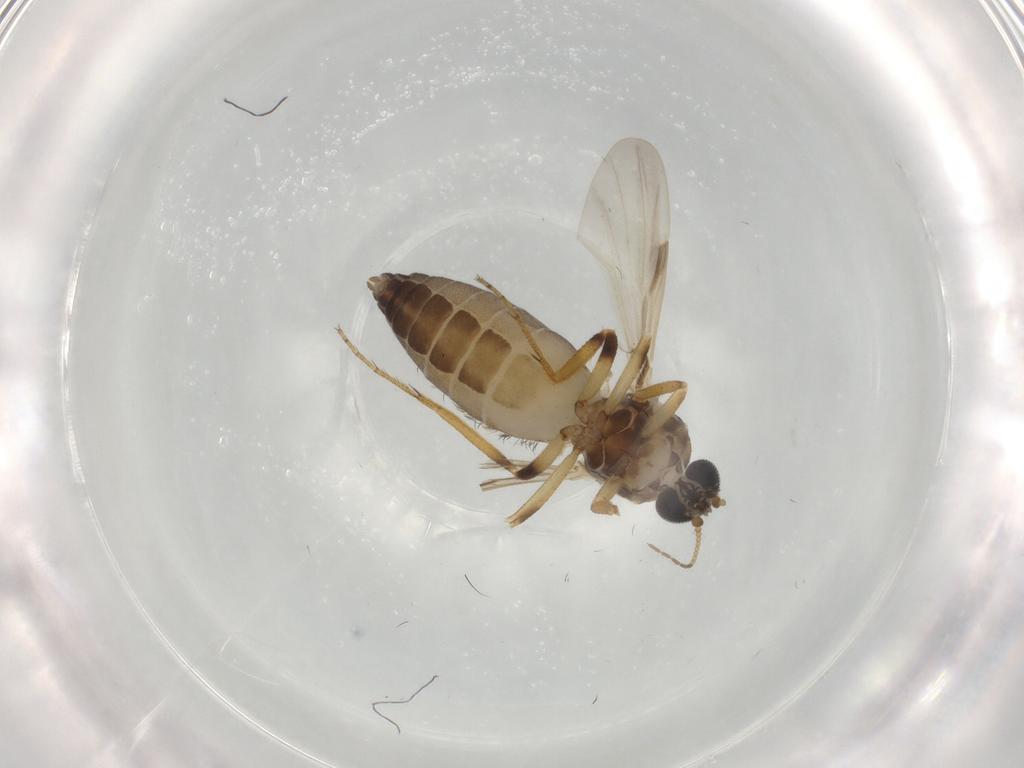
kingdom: Animalia
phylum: Arthropoda
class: Insecta
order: Diptera
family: Ceratopogonidae
